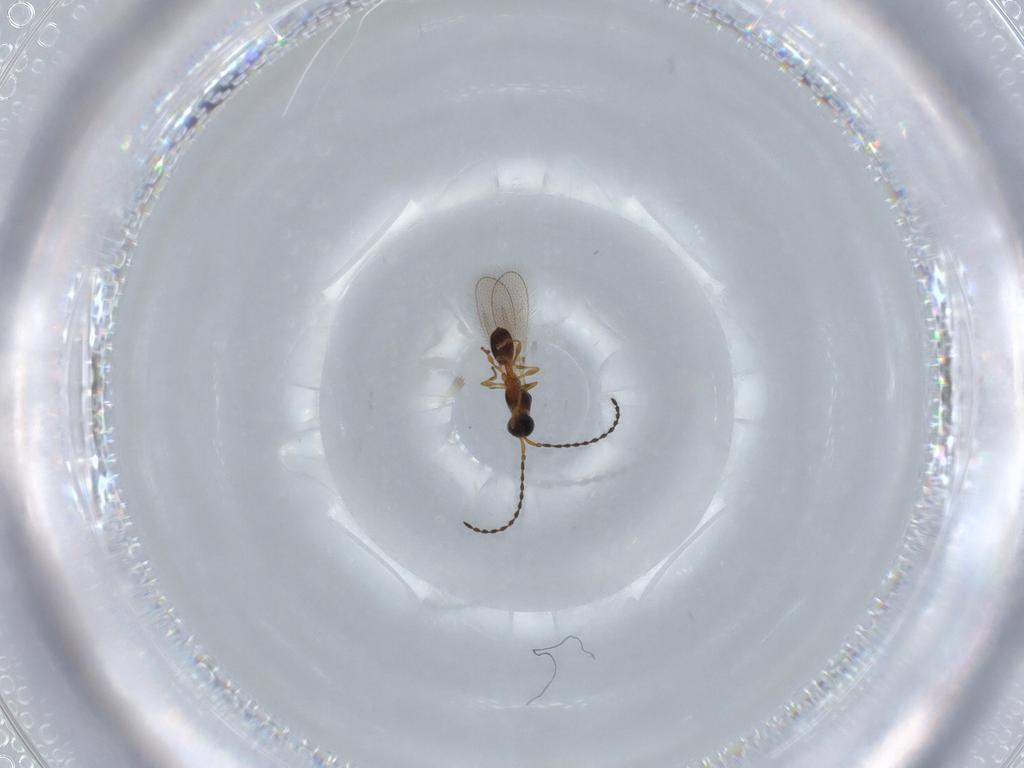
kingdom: Animalia
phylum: Arthropoda
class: Insecta
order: Hymenoptera
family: Diapriidae
